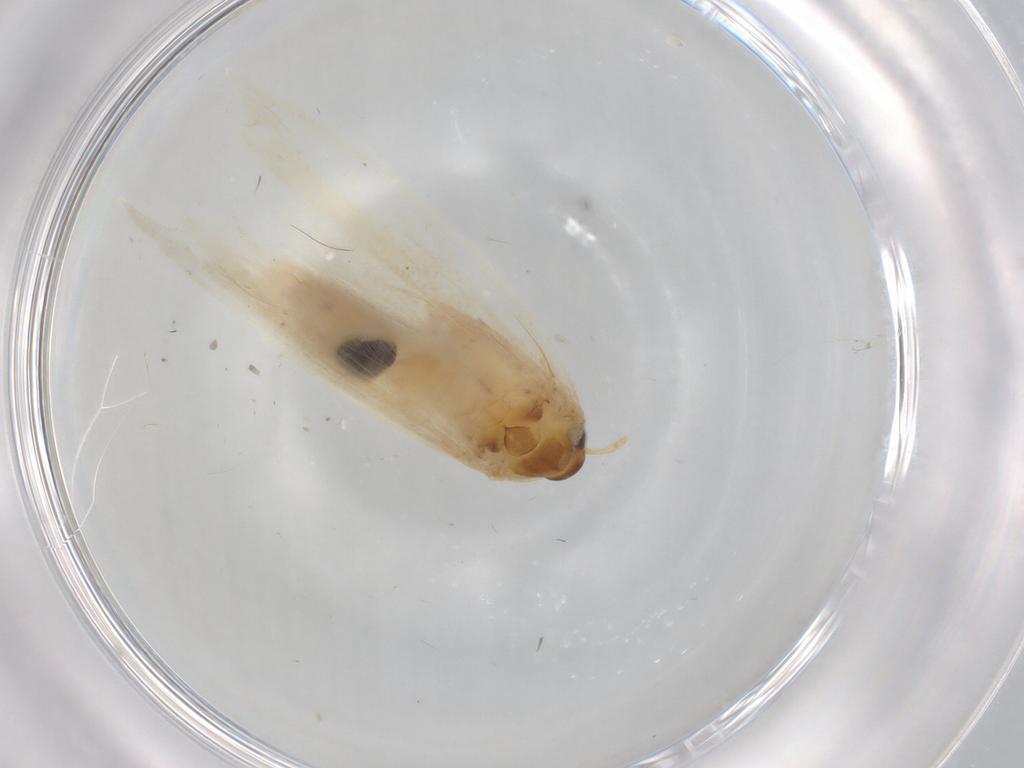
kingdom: Animalia
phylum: Arthropoda
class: Insecta
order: Lepidoptera
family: Gelechiidae
